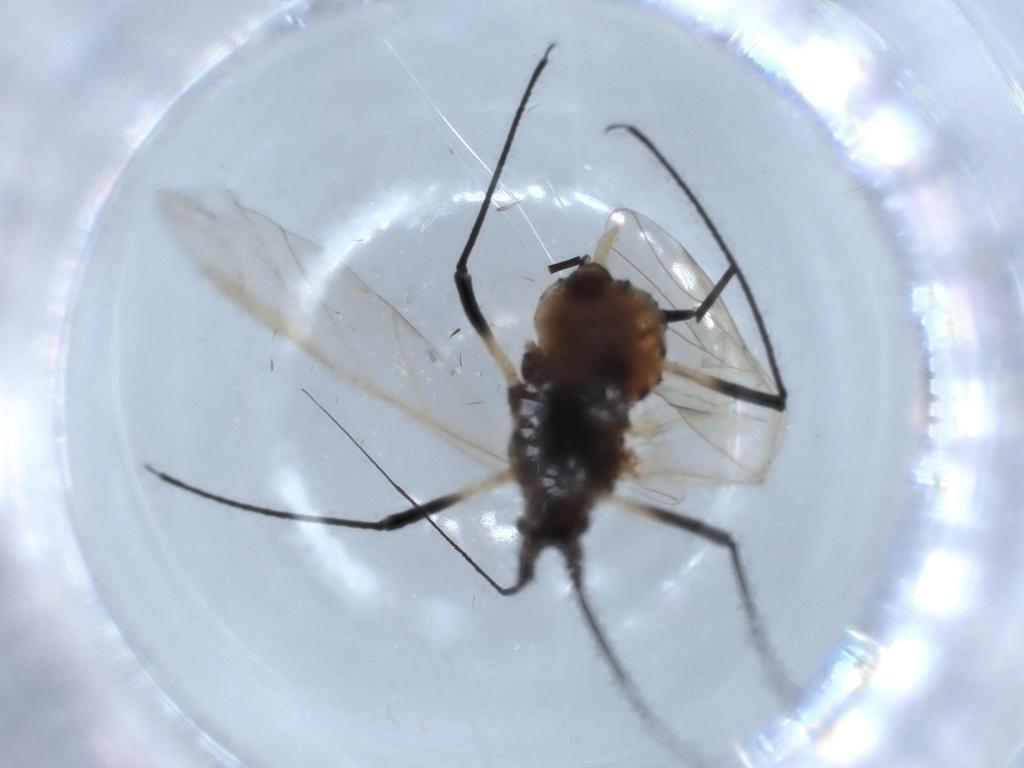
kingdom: Animalia
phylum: Arthropoda
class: Insecta
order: Hemiptera
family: Aphididae
